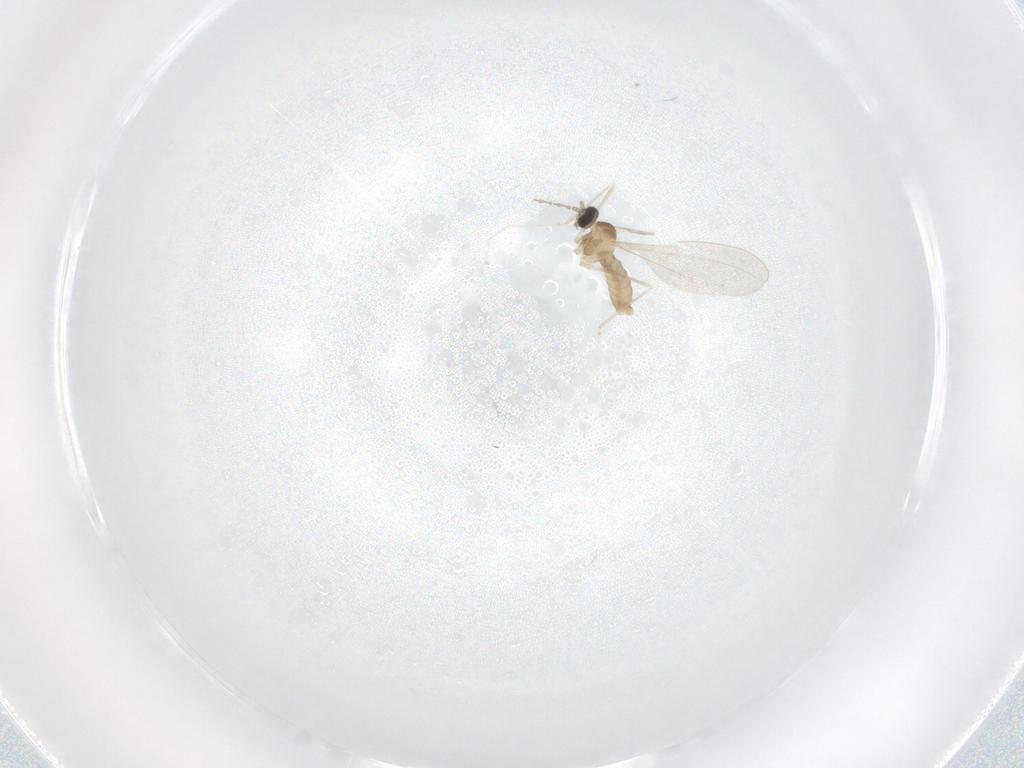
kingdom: Animalia
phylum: Arthropoda
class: Insecta
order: Diptera
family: Cecidomyiidae
